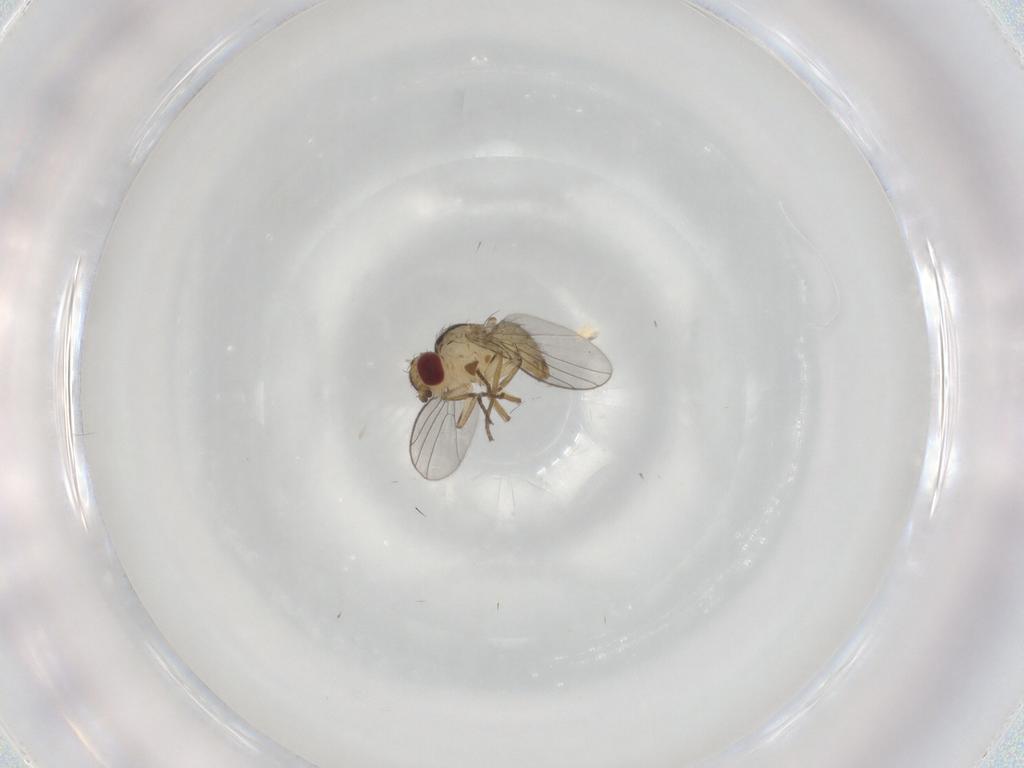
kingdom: Animalia
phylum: Arthropoda
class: Insecta
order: Diptera
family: Agromyzidae
